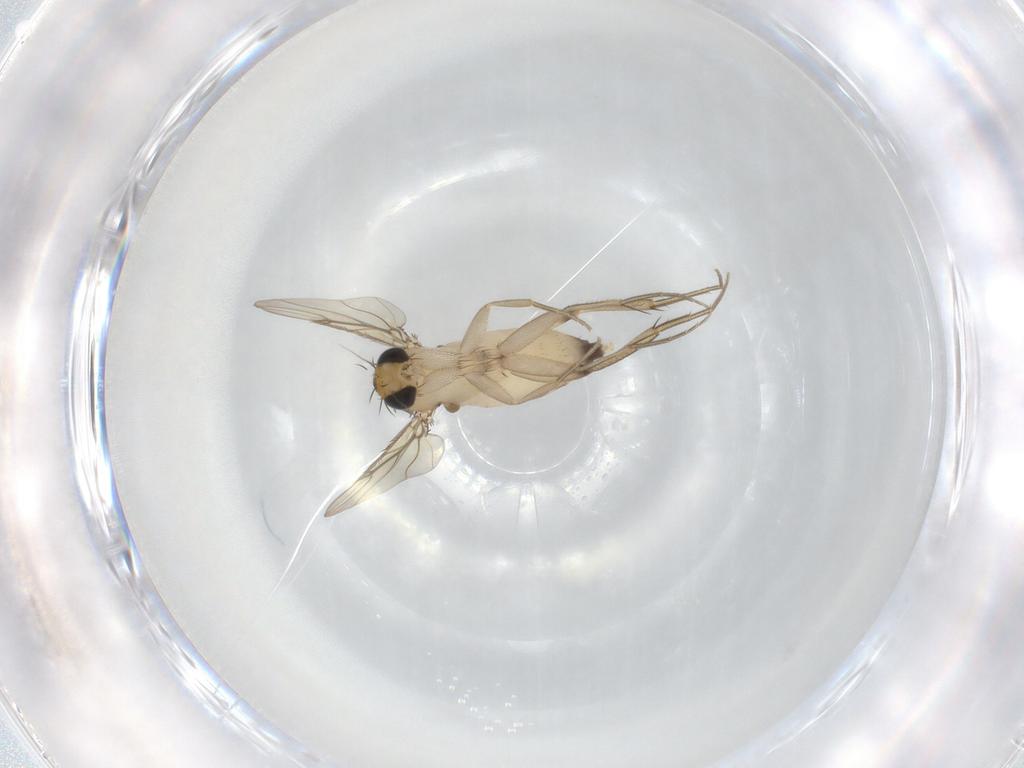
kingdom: Animalia
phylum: Arthropoda
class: Insecta
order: Diptera
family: Phoridae
